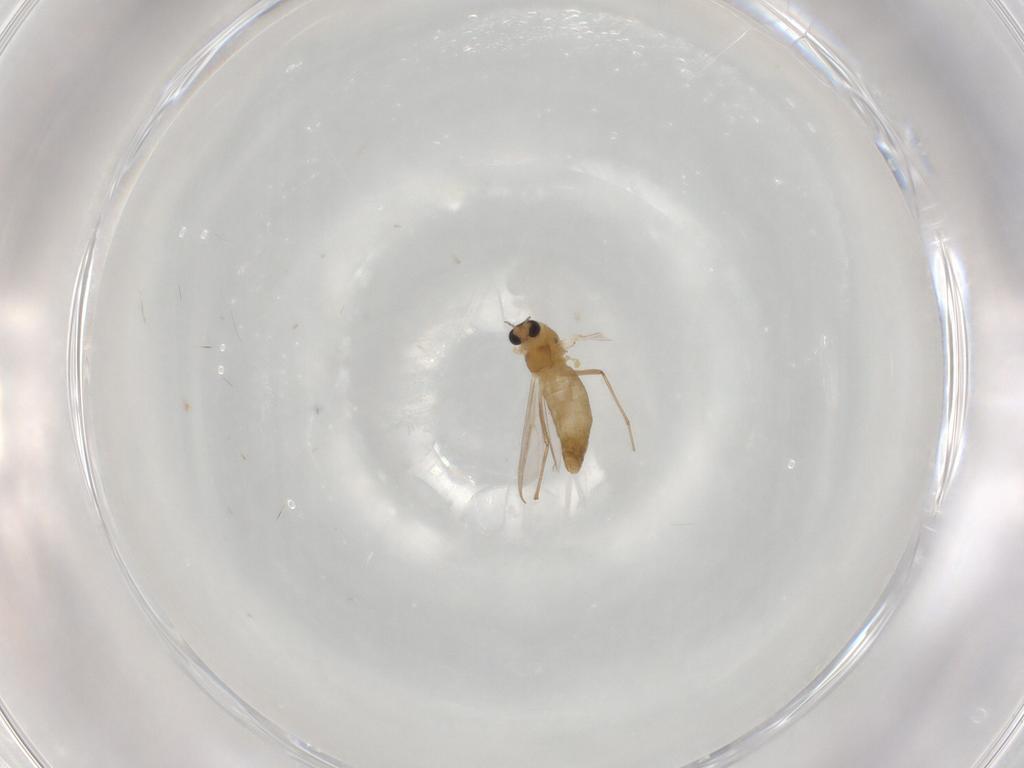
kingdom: Animalia
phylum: Arthropoda
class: Insecta
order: Diptera
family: Chironomidae
